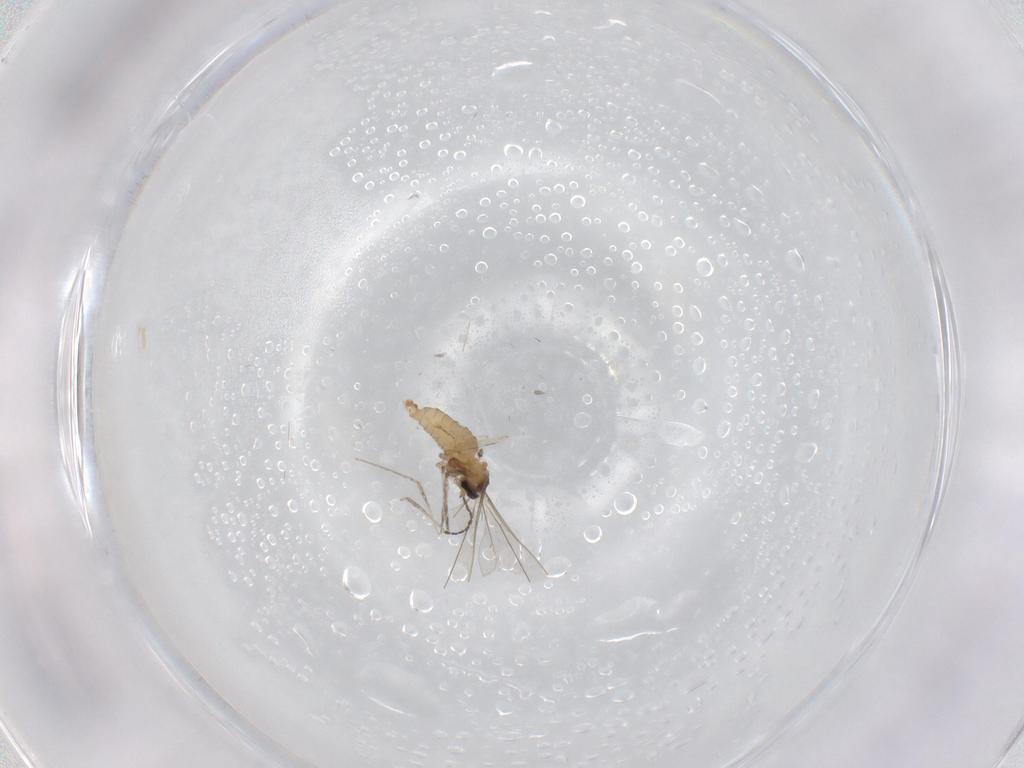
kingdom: Animalia
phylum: Arthropoda
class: Insecta
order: Diptera
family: Cecidomyiidae
